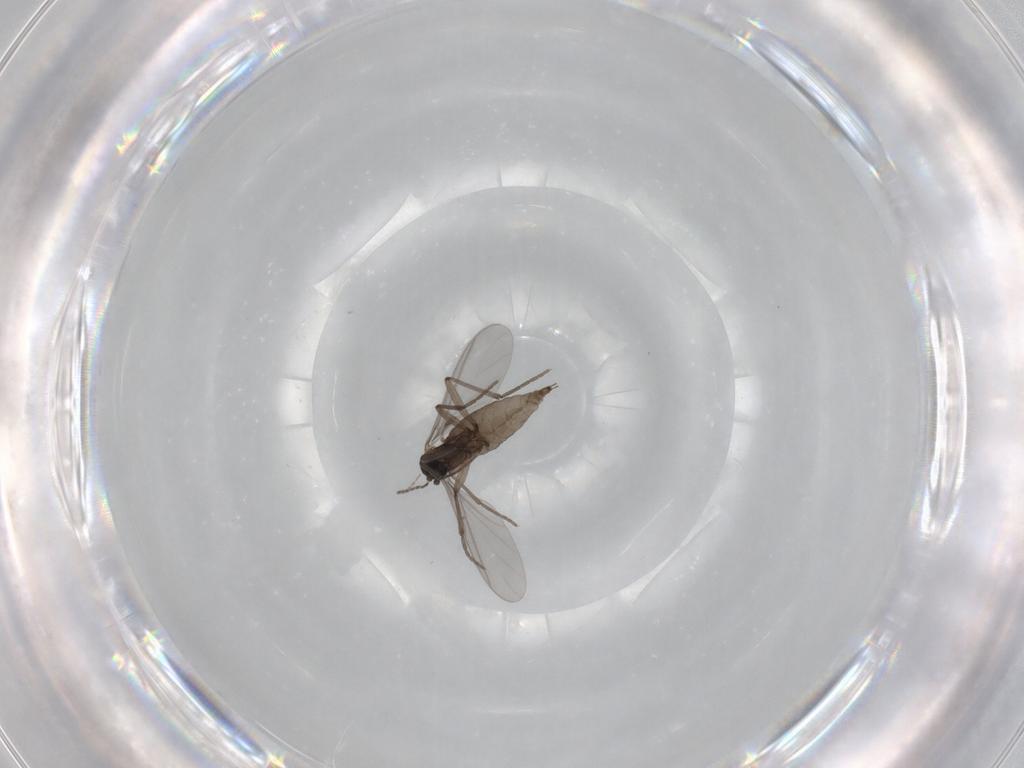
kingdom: Animalia
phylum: Arthropoda
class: Insecta
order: Diptera
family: Sciaridae
